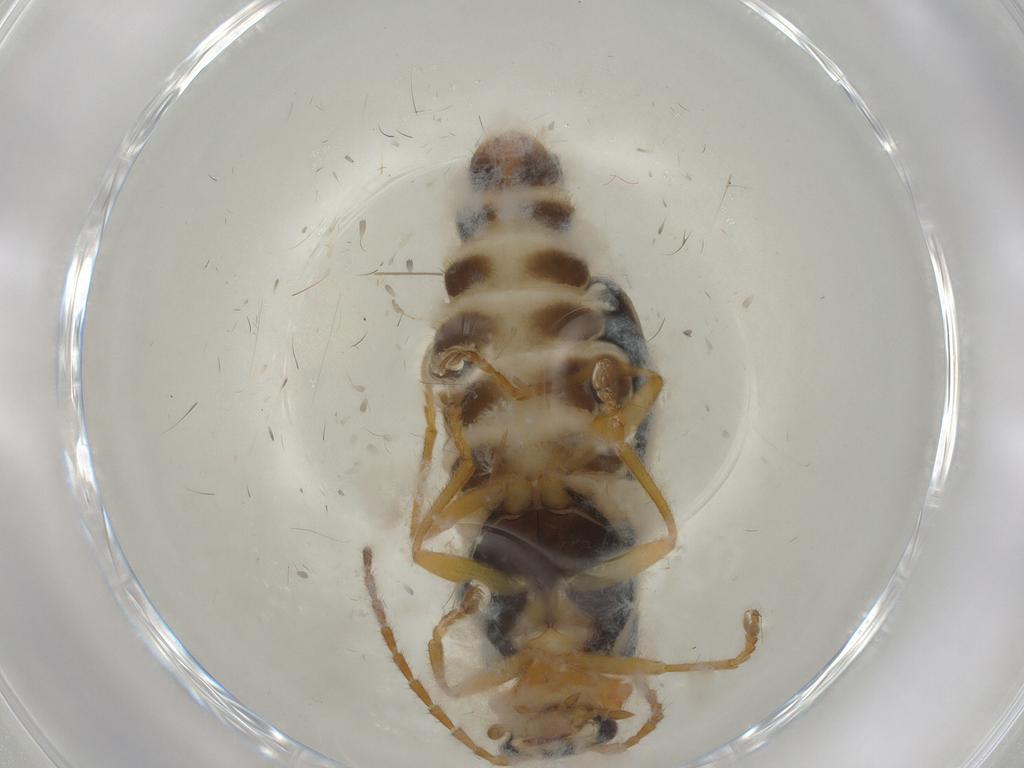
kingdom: Animalia
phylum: Arthropoda
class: Insecta
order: Coleoptera
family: Cantharidae
